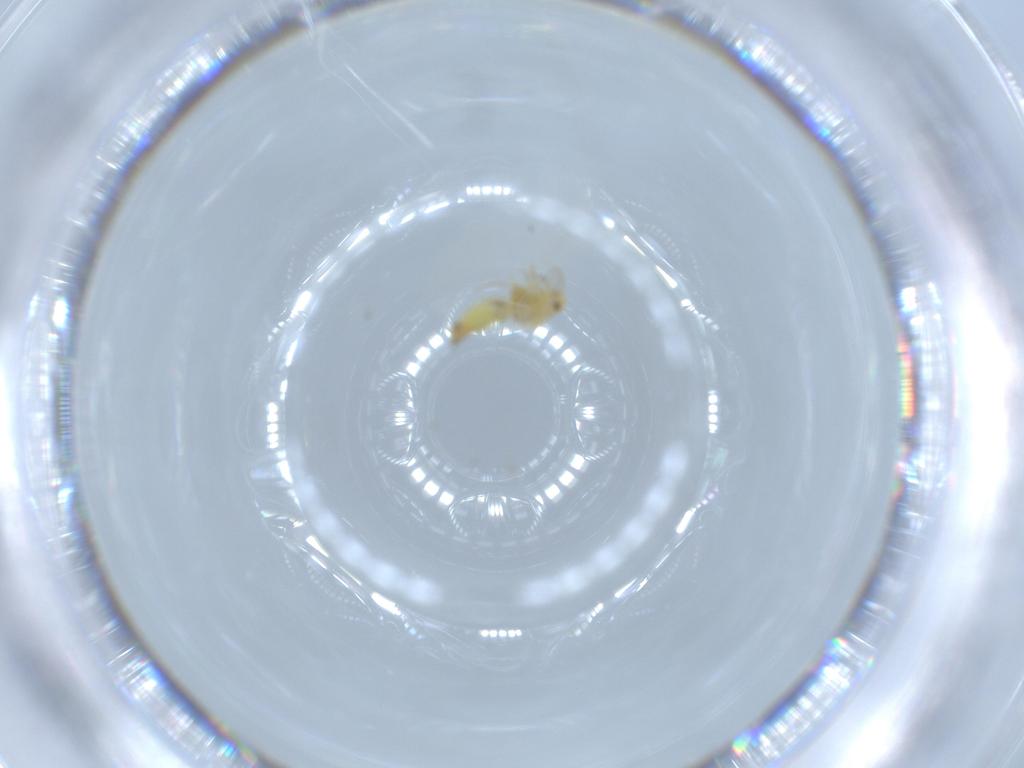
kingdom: Animalia
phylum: Arthropoda
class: Insecta
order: Hemiptera
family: Aleyrodidae
